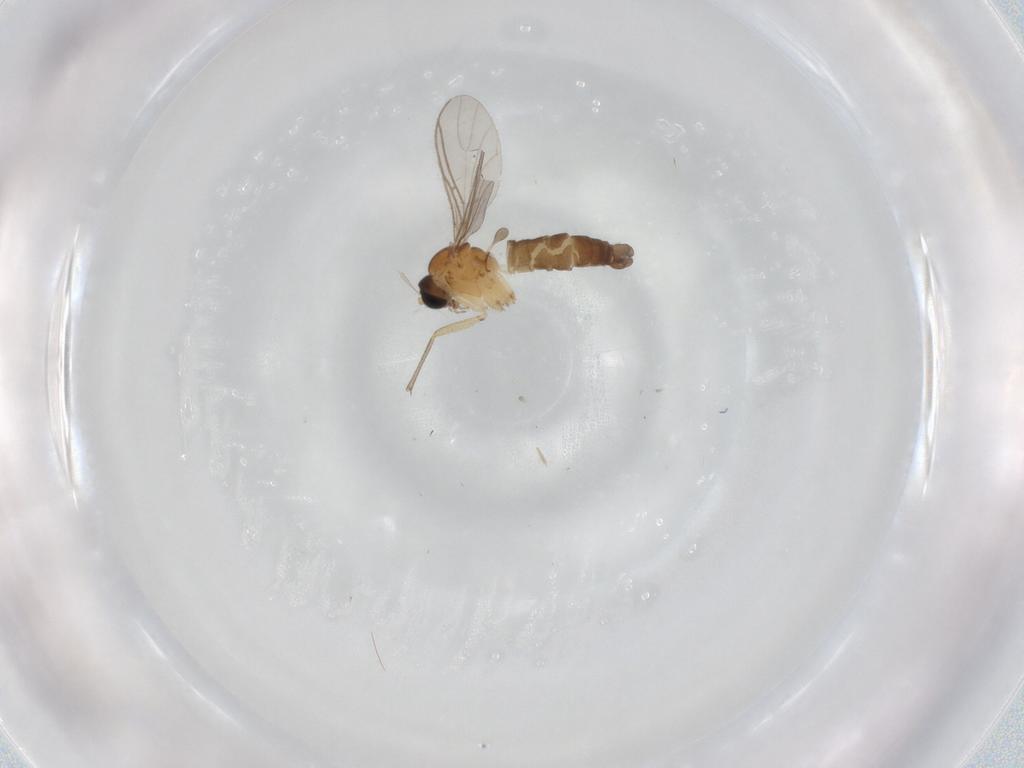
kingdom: Animalia
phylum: Arthropoda
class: Insecta
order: Diptera
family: Sciaridae
